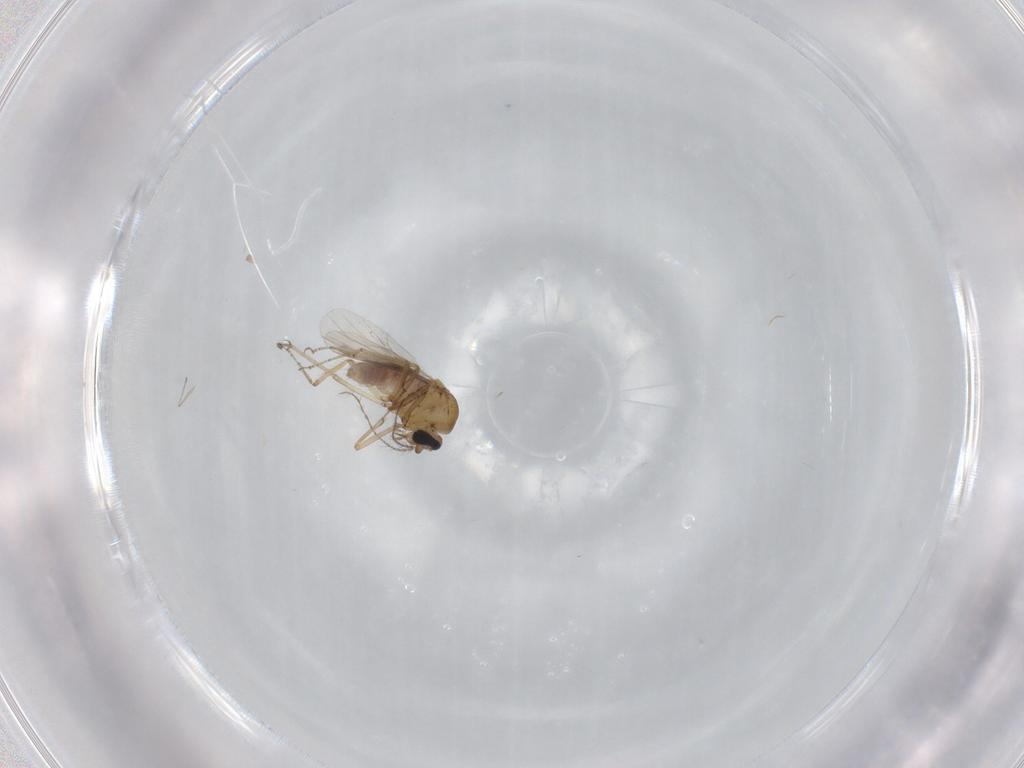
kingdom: Animalia
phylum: Arthropoda
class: Insecta
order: Diptera
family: Ceratopogonidae
